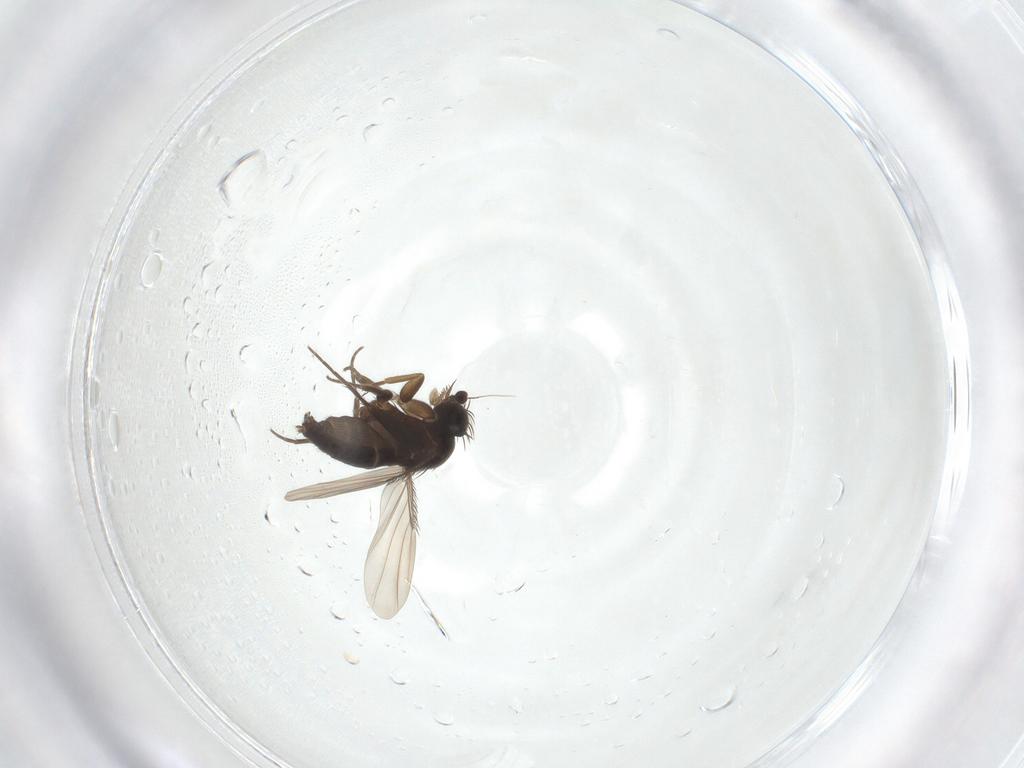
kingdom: Animalia
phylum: Arthropoda
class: Insecta
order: Diptera
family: Phoridae
